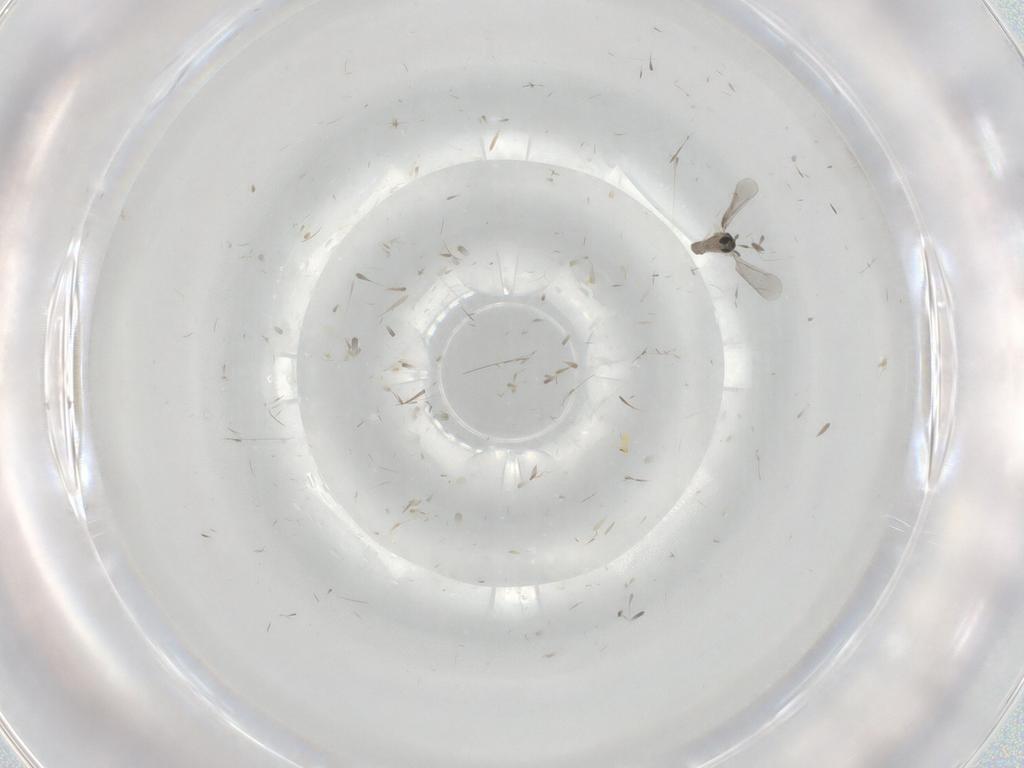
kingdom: Animalia
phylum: Arthropoda
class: Insecta
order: Diptera
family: Cecidomyiidae
